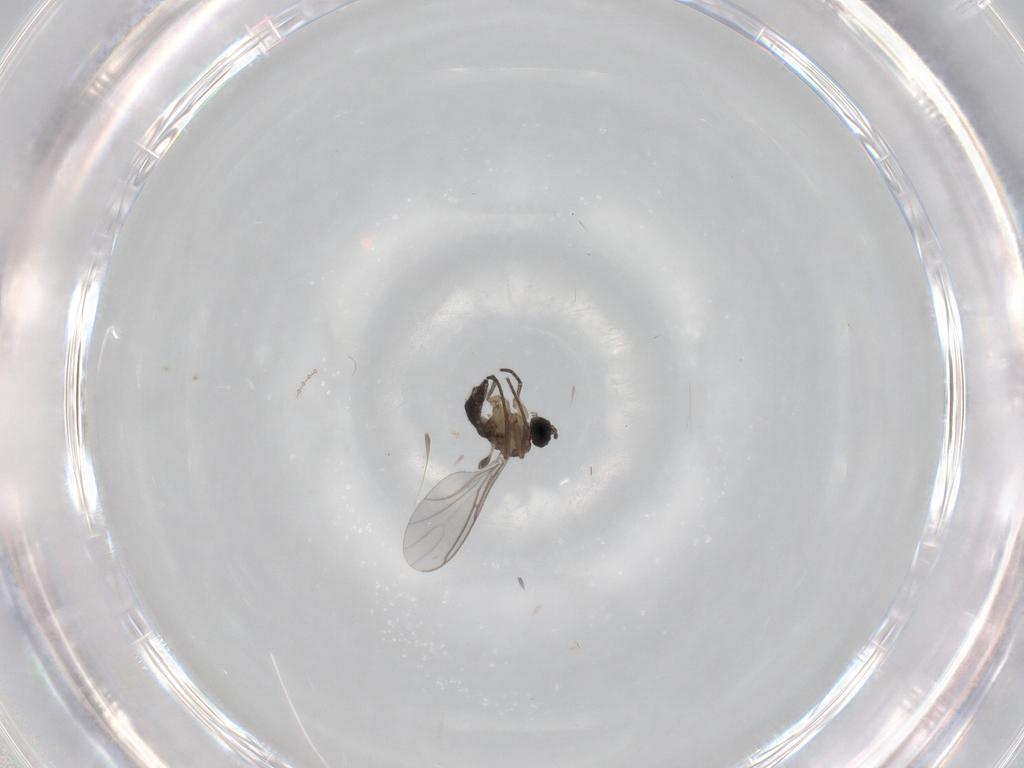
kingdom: Animalia
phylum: Arthropoda
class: Insecta
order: Diptera
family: Cecidomyiidae
